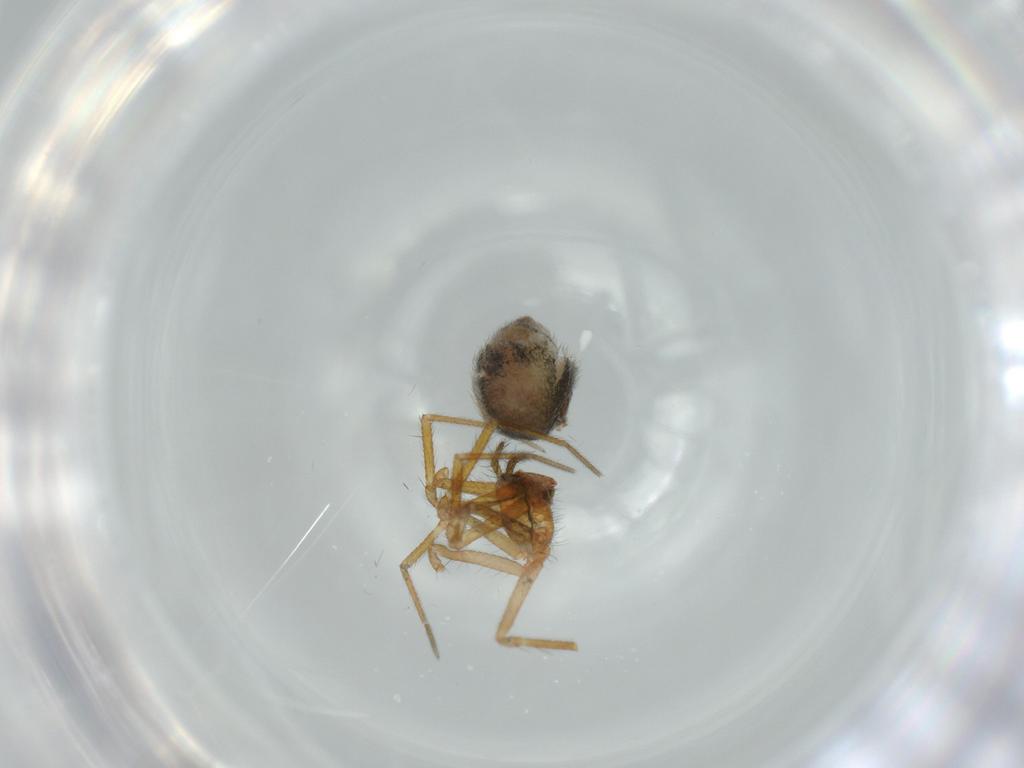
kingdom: Animalia
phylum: Arthropoda
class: Arachnida
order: Araneae
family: Linyphiidae
